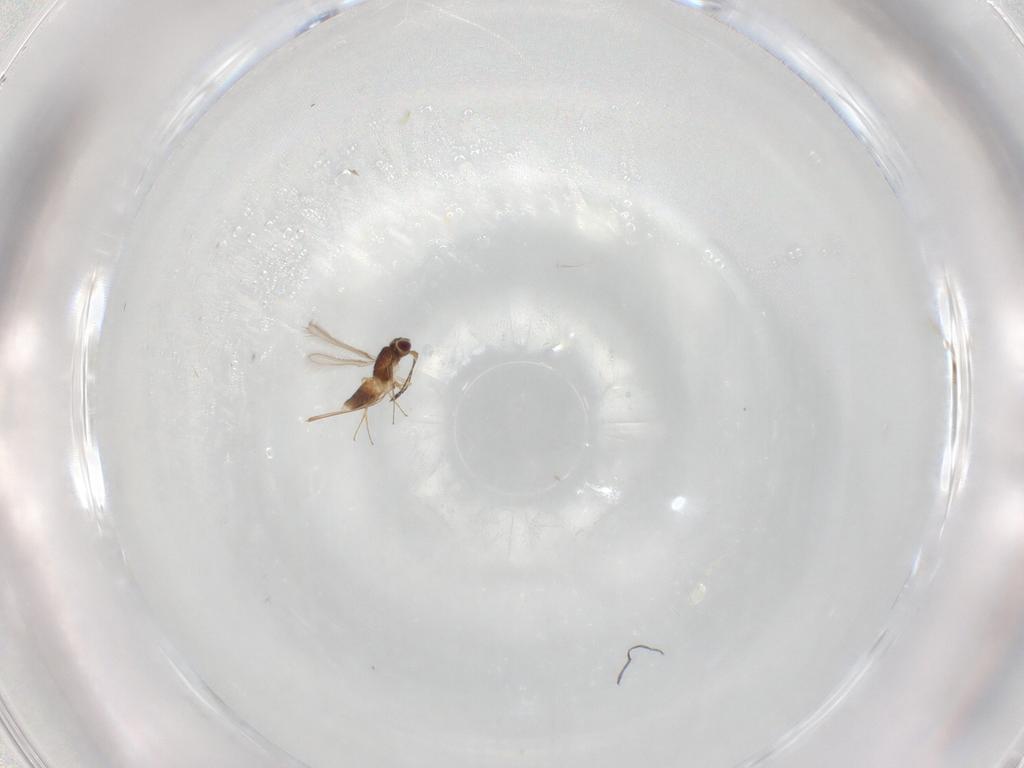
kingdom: Animalia
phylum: Arthropoda
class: Insecta
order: Hymenoptera
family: Mymaridae
